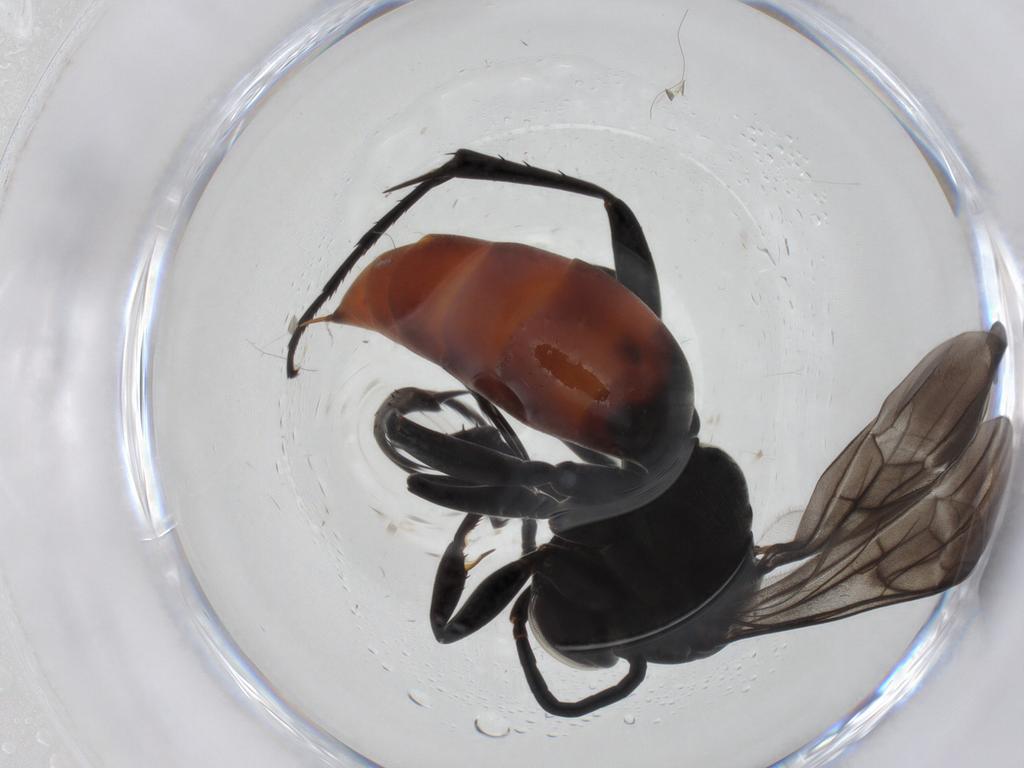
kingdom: Animalia
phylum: Arthropoda
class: Insecta
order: Hymenoptera
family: Pompilidae
